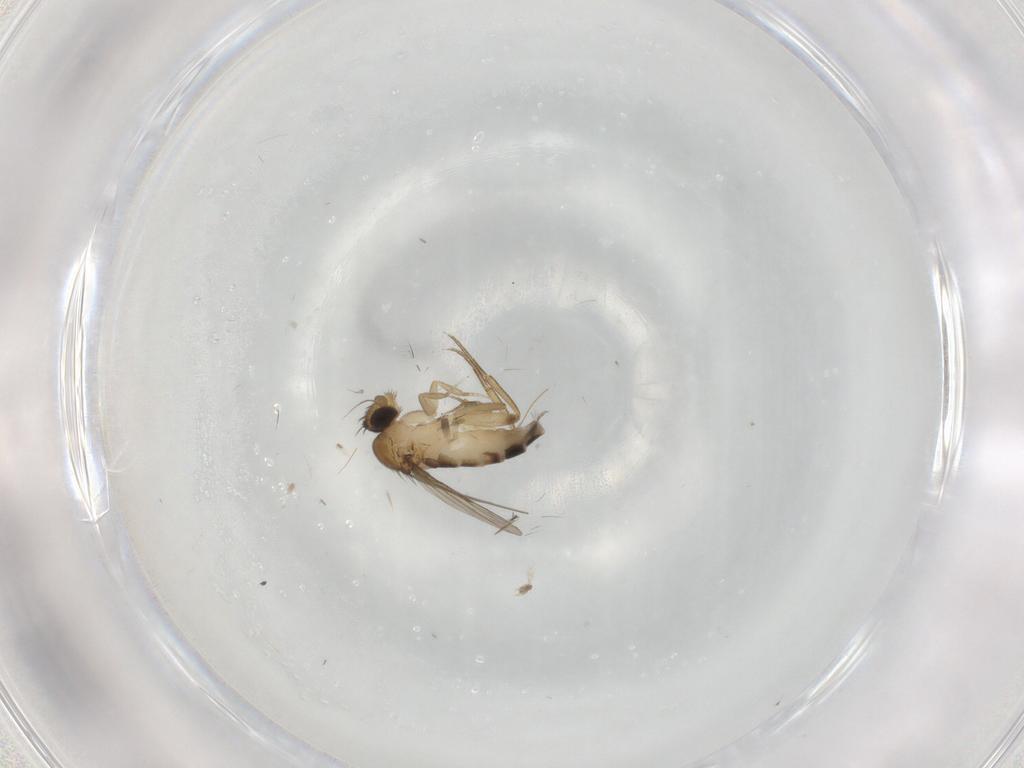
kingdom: Animalia
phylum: Arthropoda
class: Insecta
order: Diptera
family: Phoridae
